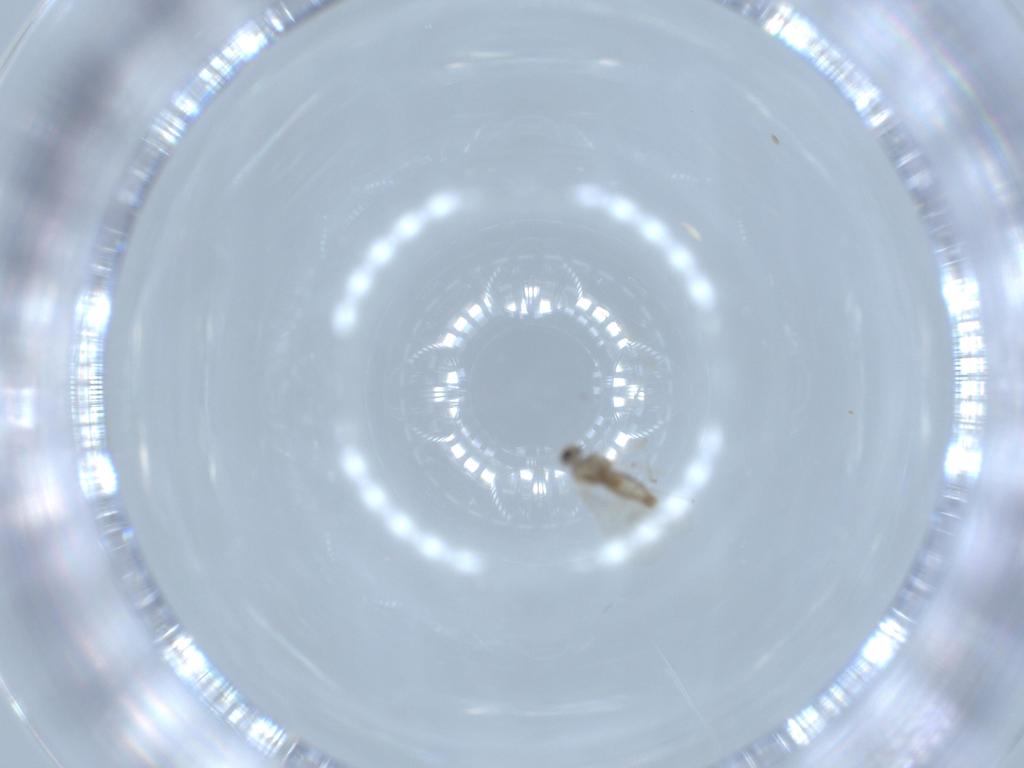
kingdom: Animalia
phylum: Arthropoda
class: Insecta
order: Diptera
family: Cecidomyiidae
